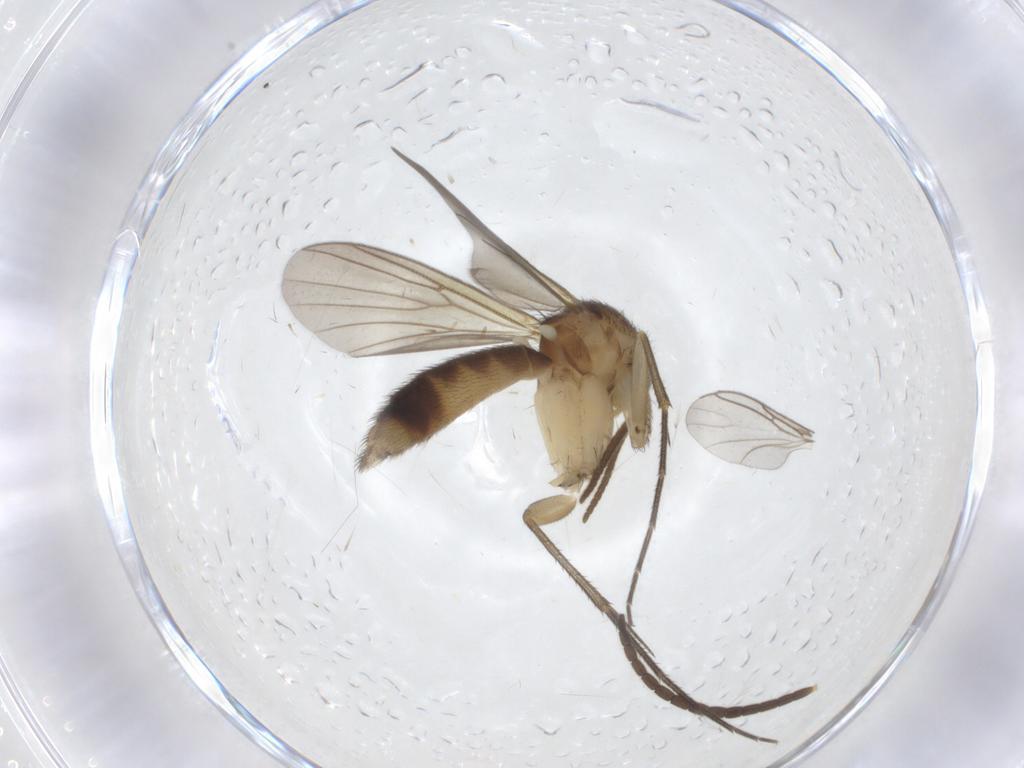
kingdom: Animalia
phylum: Arthropoda
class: Insecta
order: Diptera
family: Mycetophilidae
